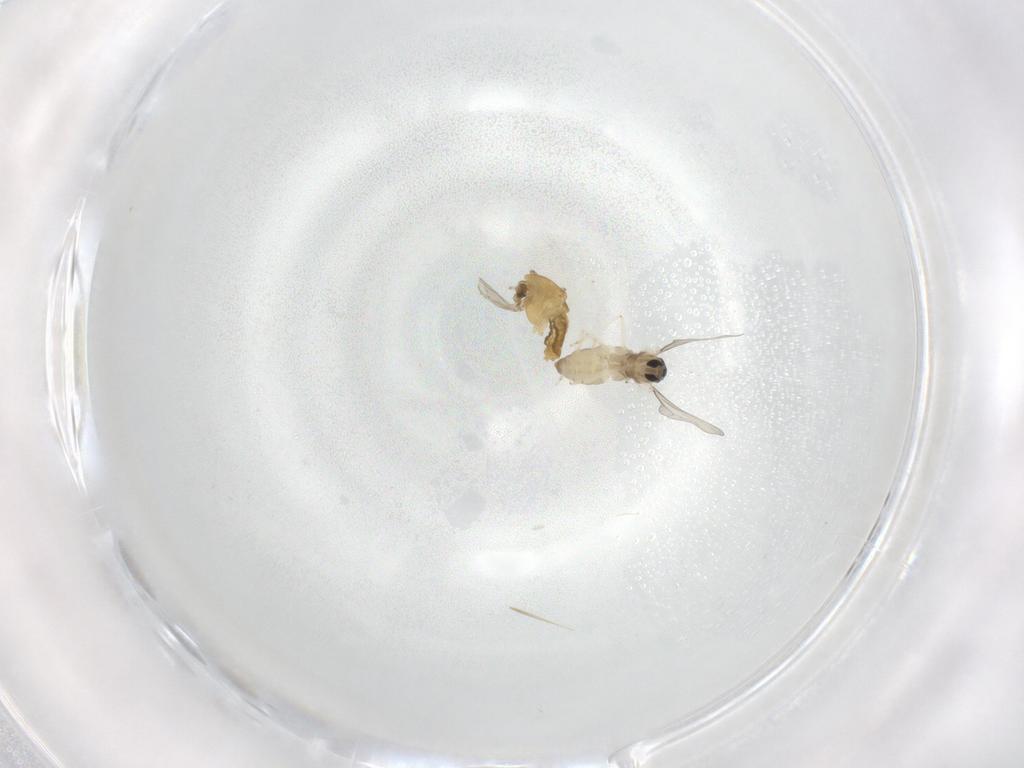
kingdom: Animalia
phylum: Arthropoda
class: Insecta
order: Diptera
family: Chironomidae
